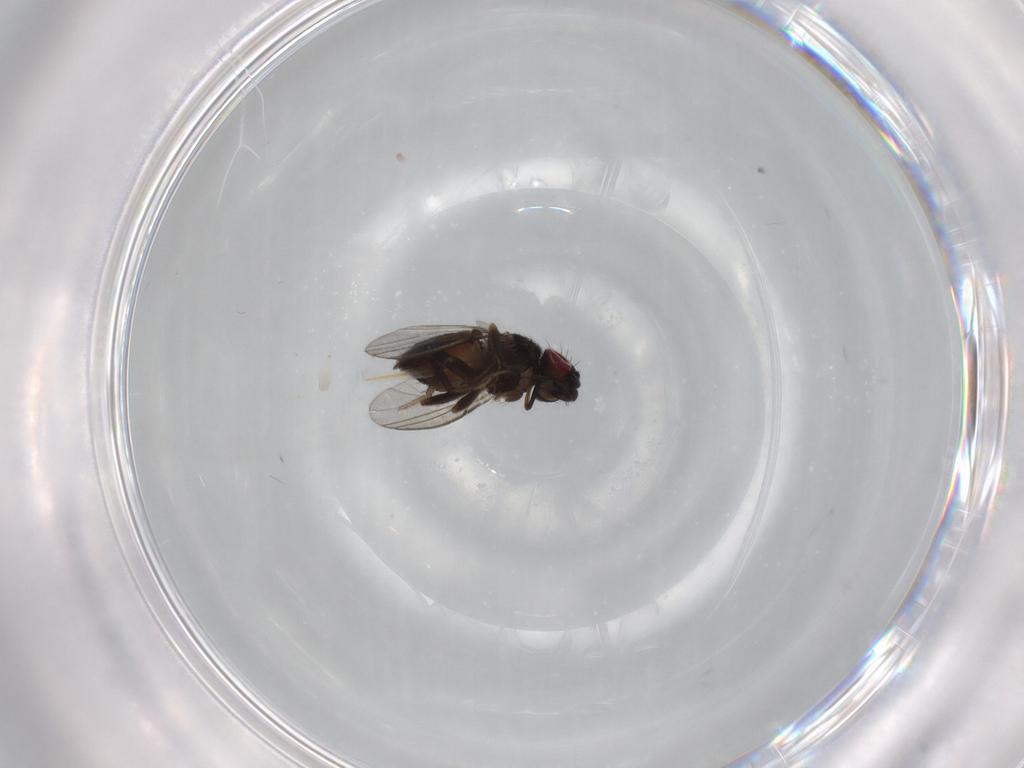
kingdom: Animalia
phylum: Arthropoda
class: Insecta
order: Diptera
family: Milichiidae
